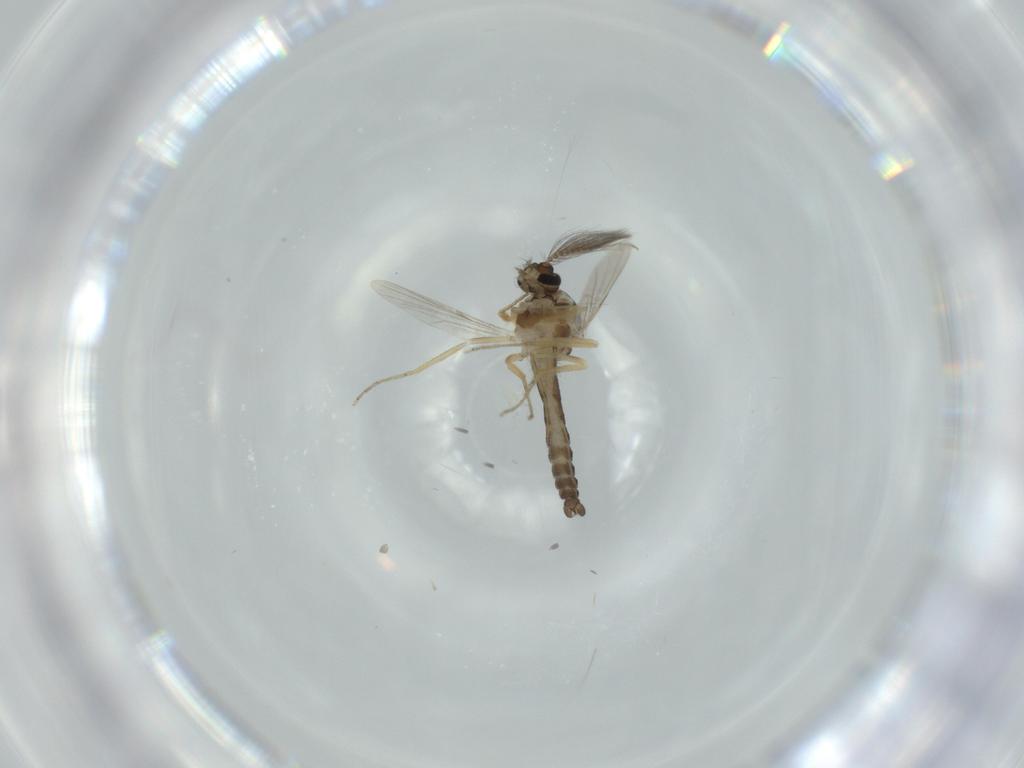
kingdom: Animalia
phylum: Arthropoda
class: Insecta
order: Diptera
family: Ceratopogonidae
